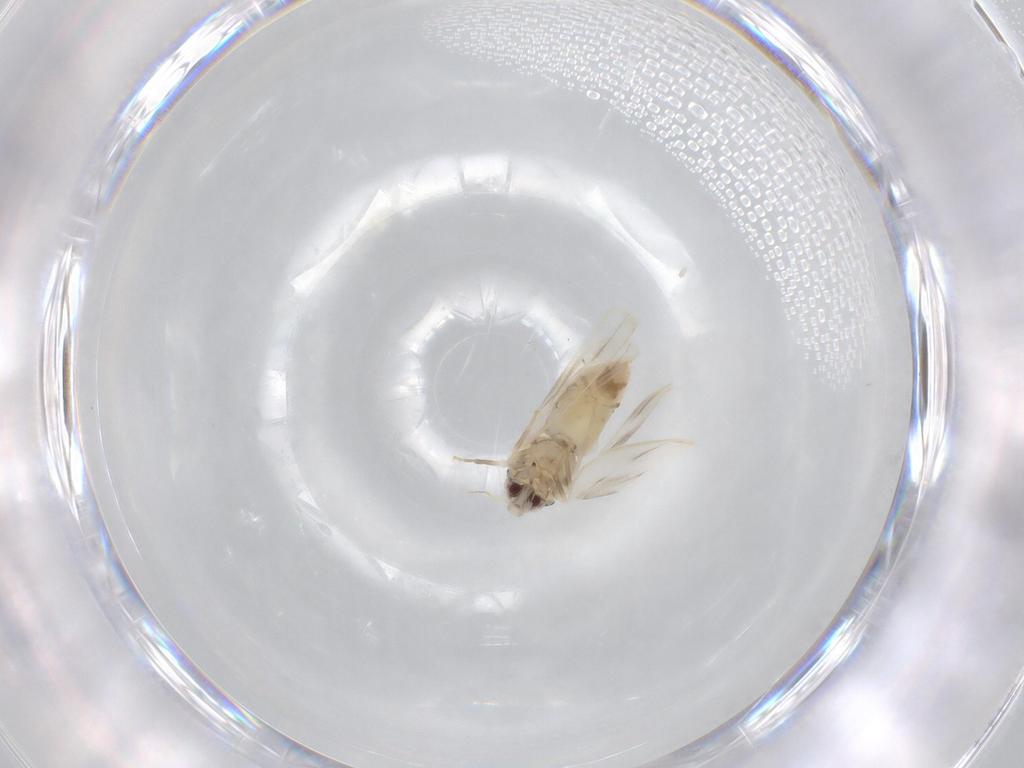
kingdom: Animalia
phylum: Arthropoda
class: Insecta
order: Hemiptera
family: Aleyrodidae
